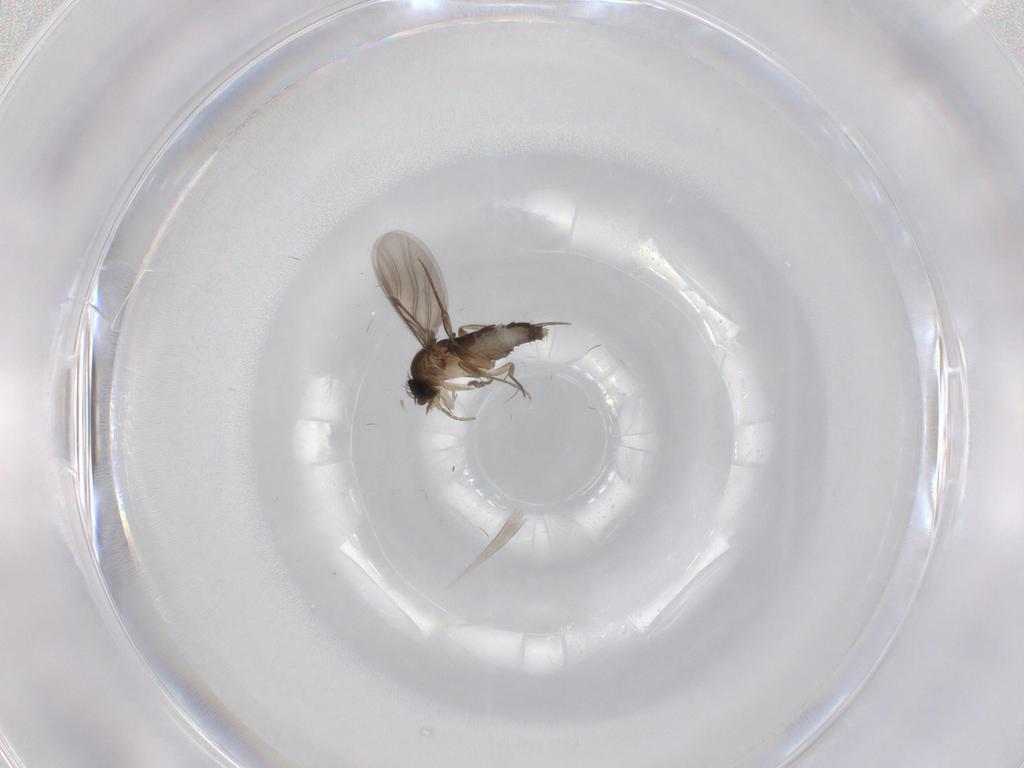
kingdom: Animalia
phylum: Arthropoda
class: Insecta
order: Diptera
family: Phoridae
